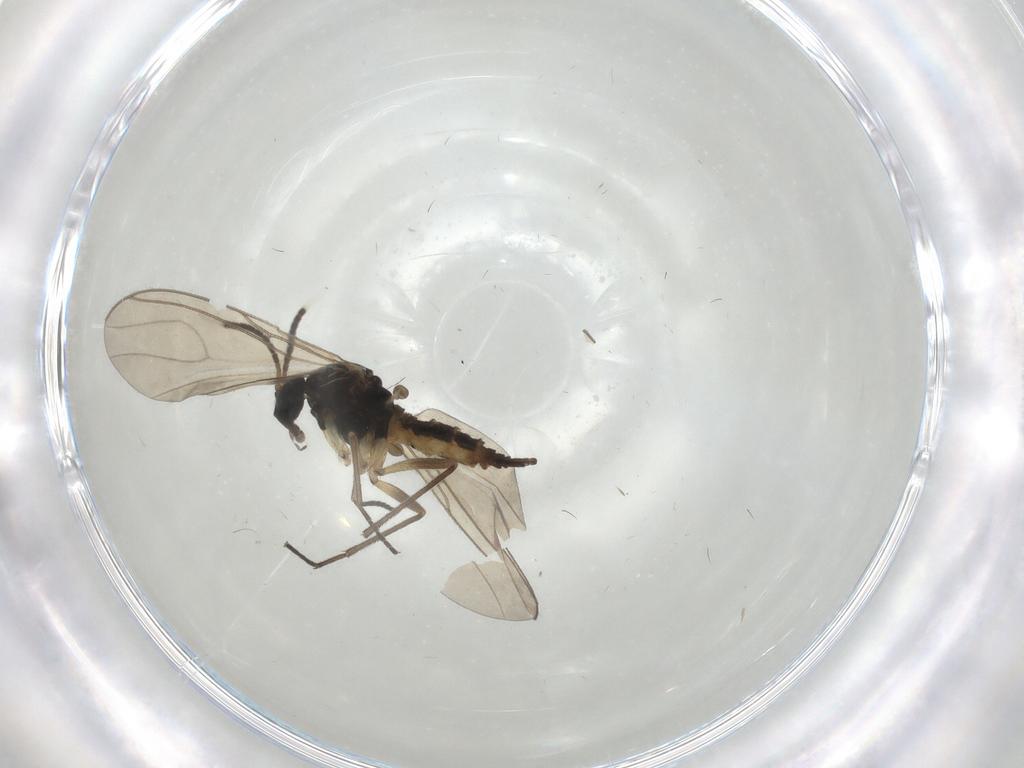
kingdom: Animalia
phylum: Arthropoda
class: Insecta
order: Diptera
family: Sciaridae
